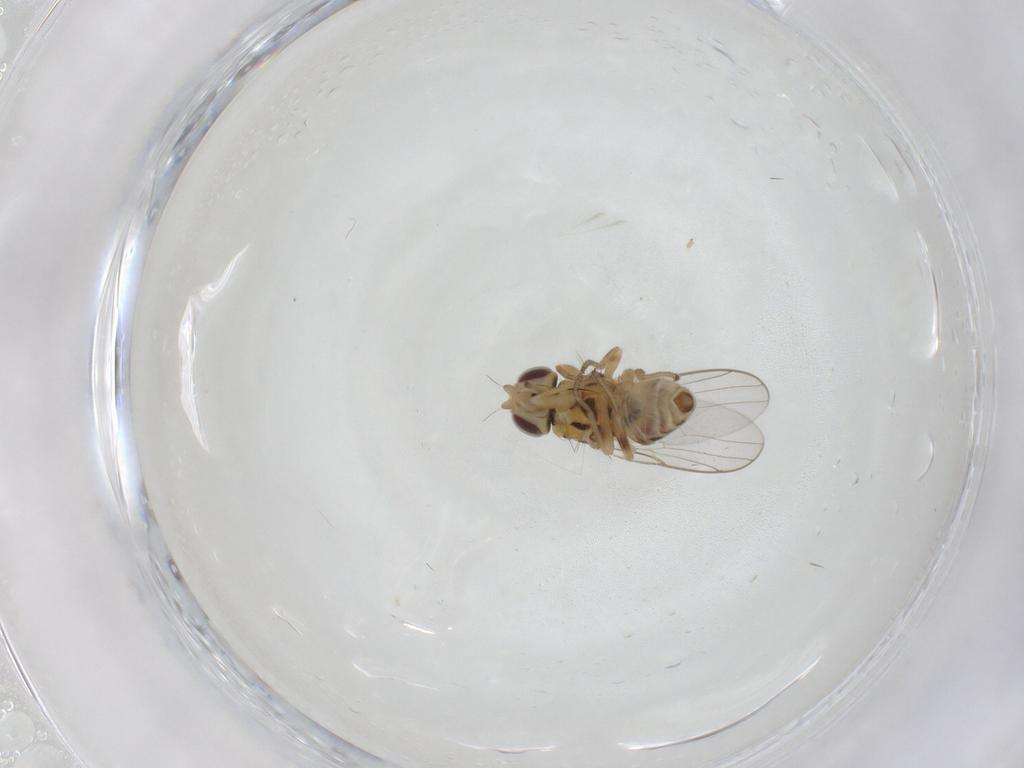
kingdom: Animalia
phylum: Arthropoda
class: Insecta
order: Diptera
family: Chloropidae
